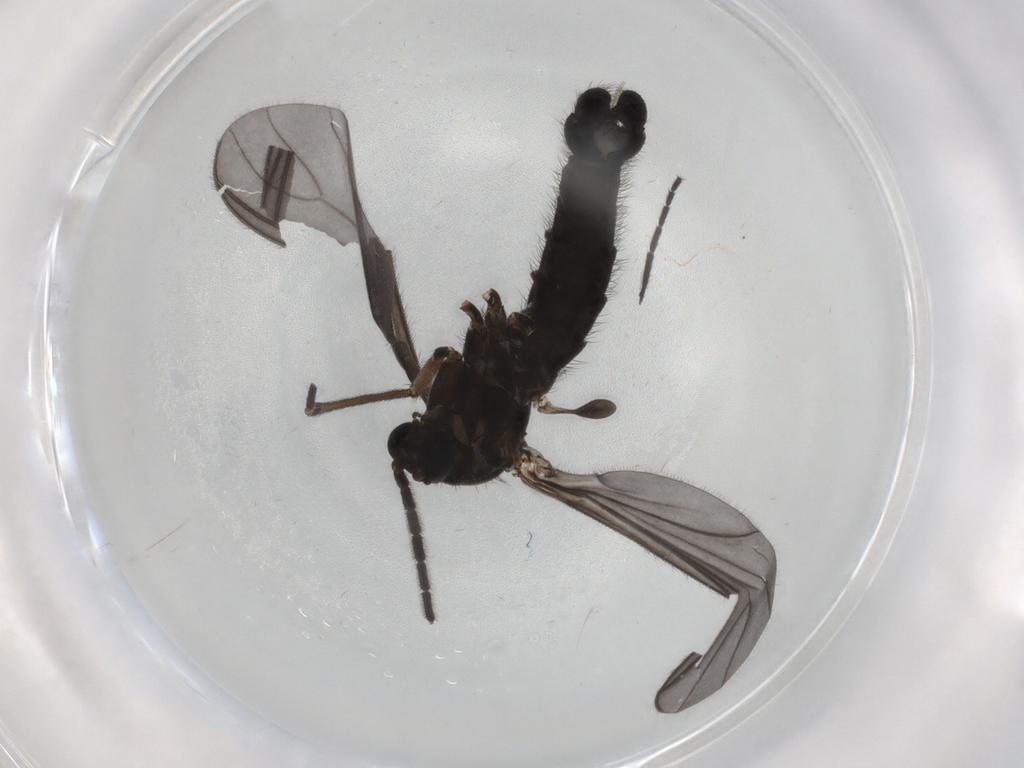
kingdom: Animalia
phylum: Arthropoda
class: Insecta
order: Diptera
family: Sciaridae
